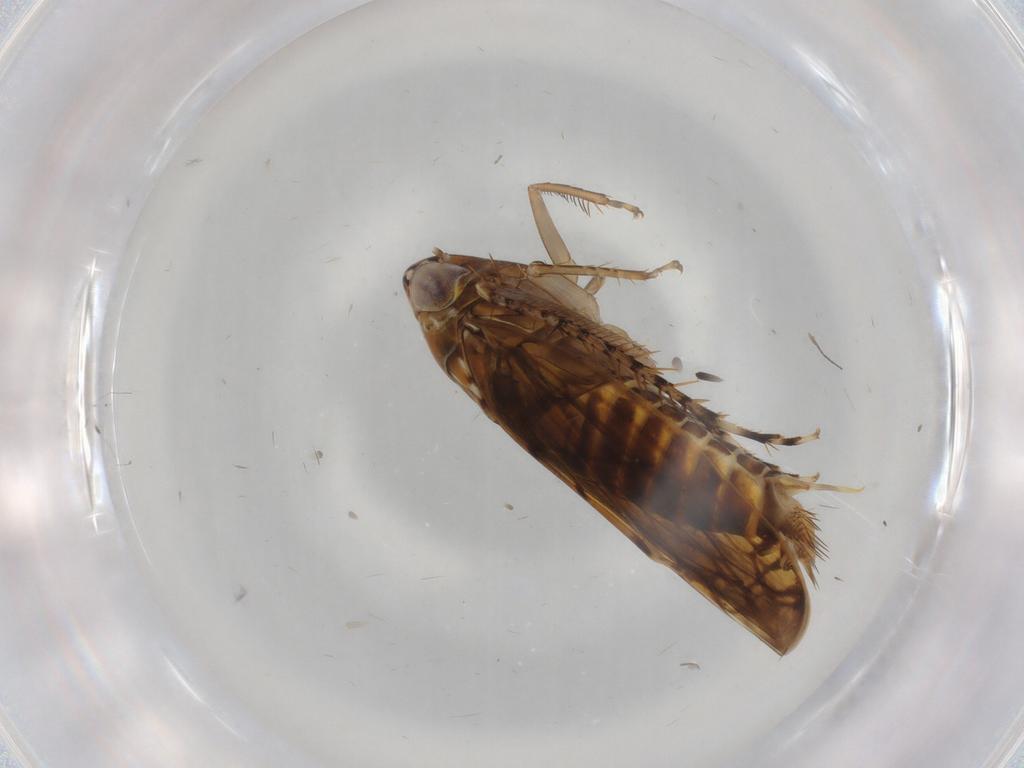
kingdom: Animalia
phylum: Arthropoda
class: Insecta
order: Hemiptera
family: Cicadellidae
